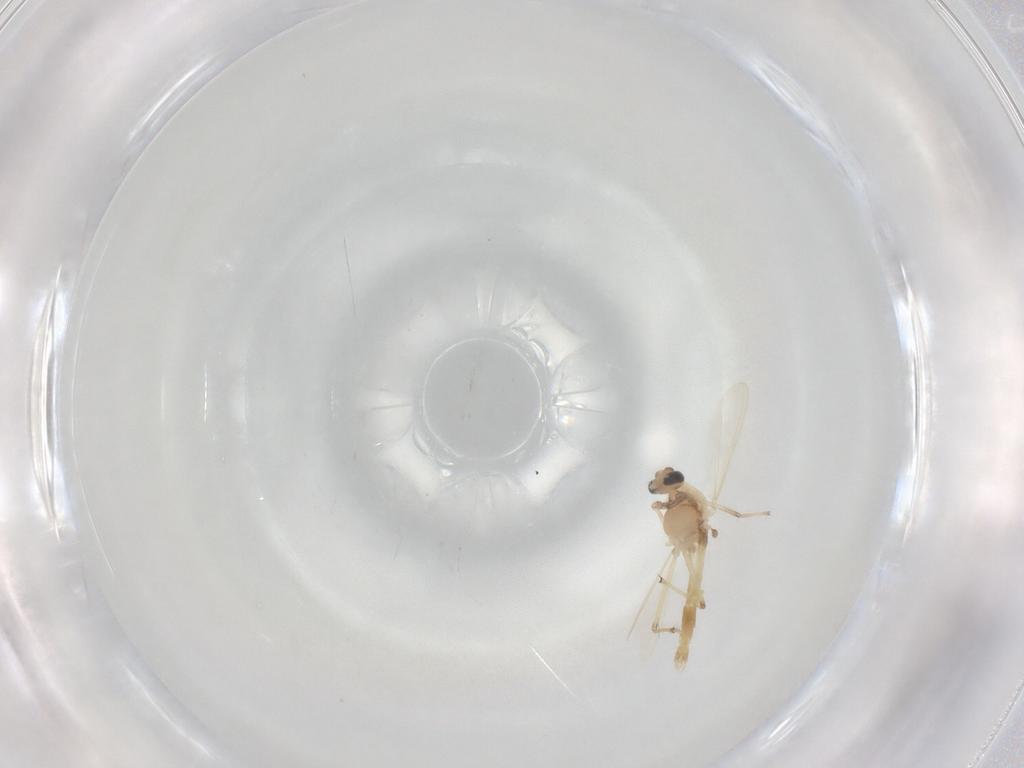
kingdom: Animalia
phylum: Arthropoda
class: Insecta
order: Diptera
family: Chironomidae
